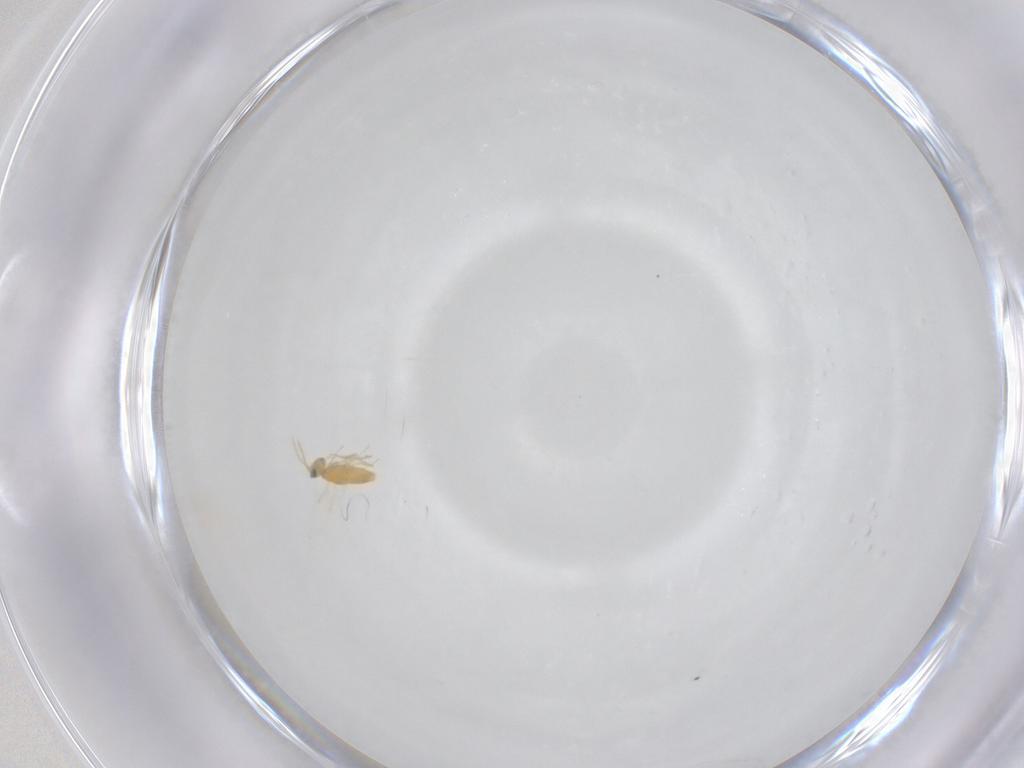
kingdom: Animalia
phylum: Arthropoda
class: Insecta
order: Hymenoptera
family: Aphelinidae
